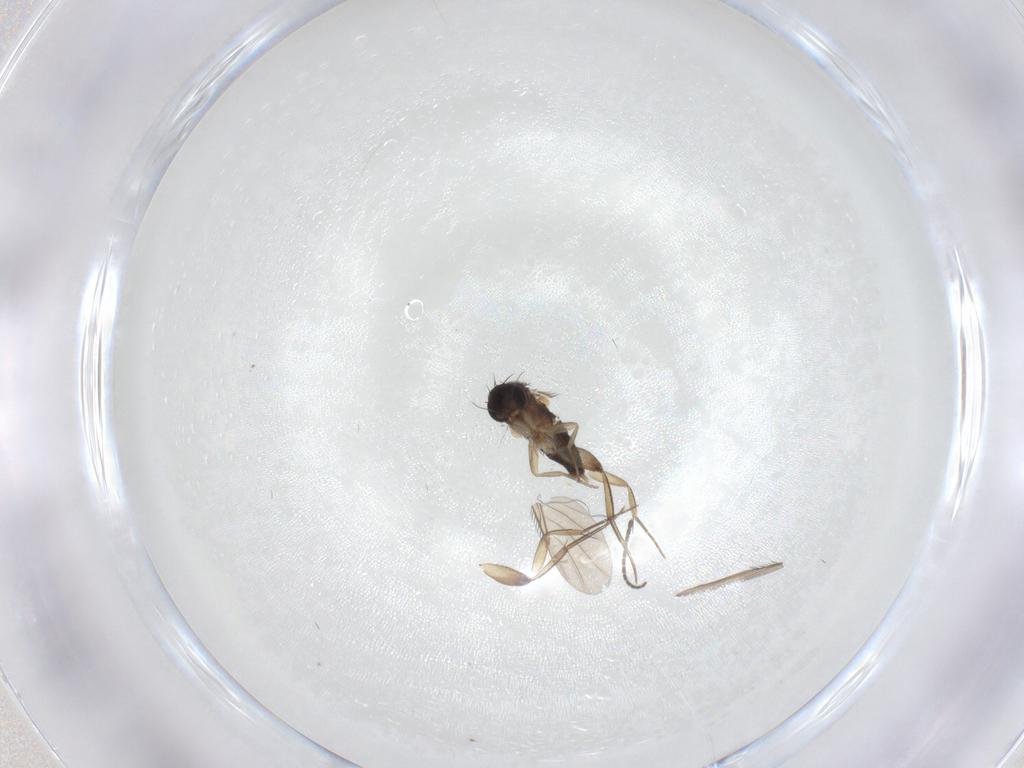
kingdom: Animalia
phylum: Arthropoda
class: Insecta
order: Diptera
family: Phoridae
